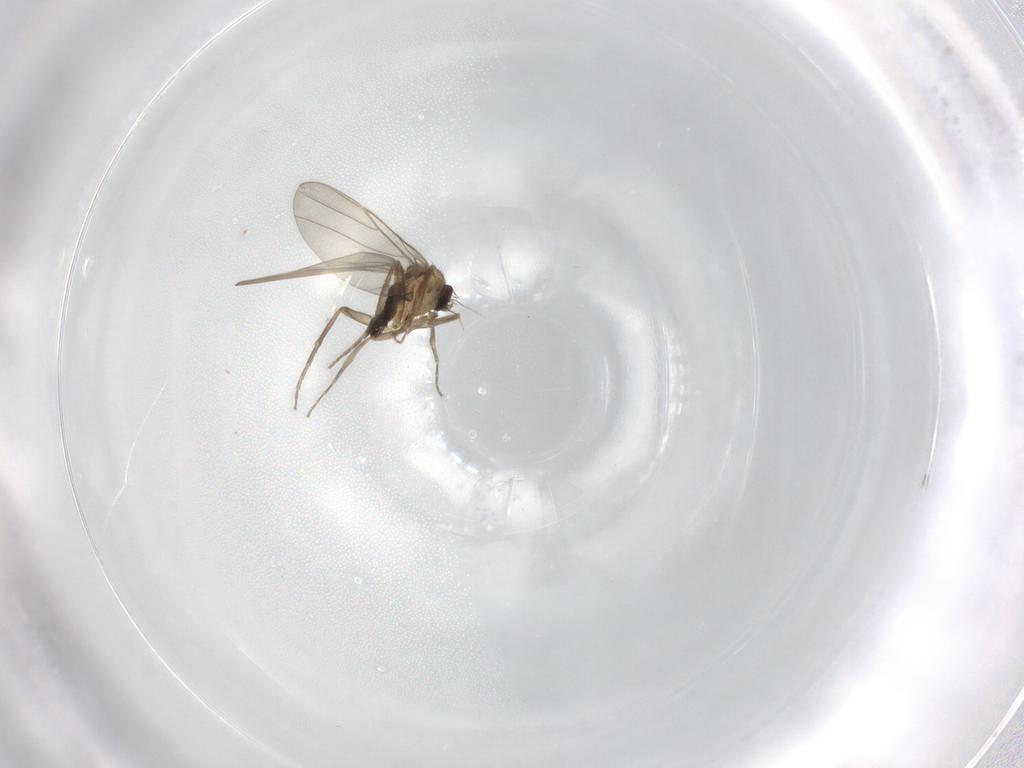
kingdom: Animalia
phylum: Arthropoda
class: Insecta
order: Diptera
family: Phoridae
